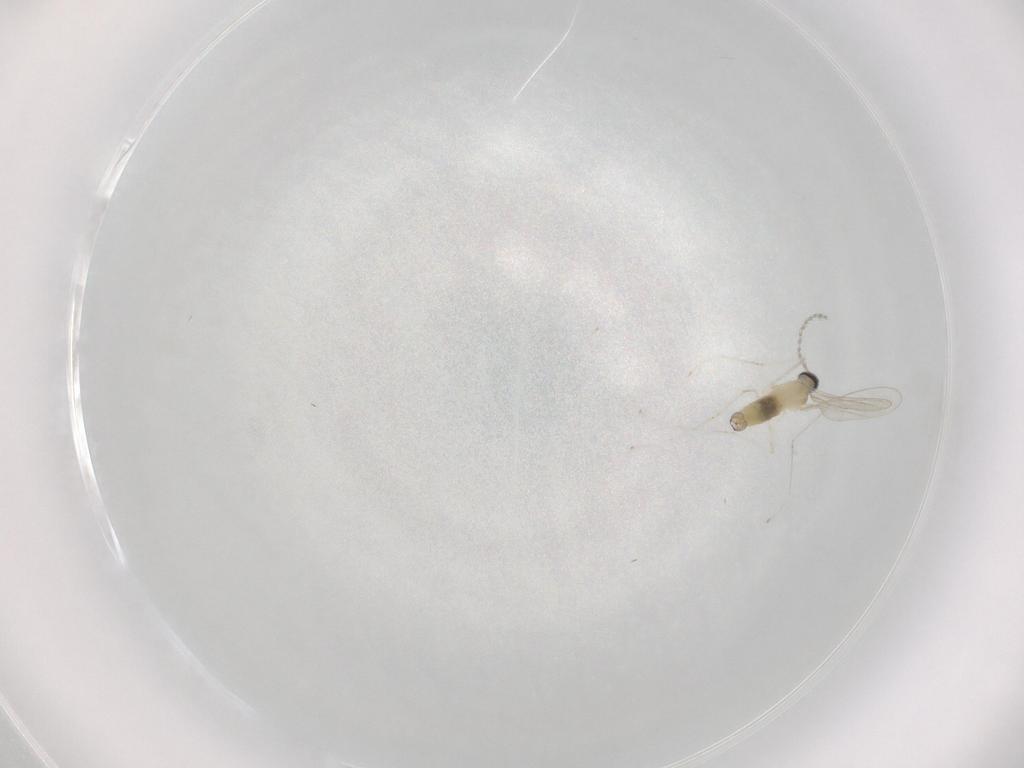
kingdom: Animalia
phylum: Arthropoda
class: Insecta
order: Diptera
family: Cecidomyiidae
